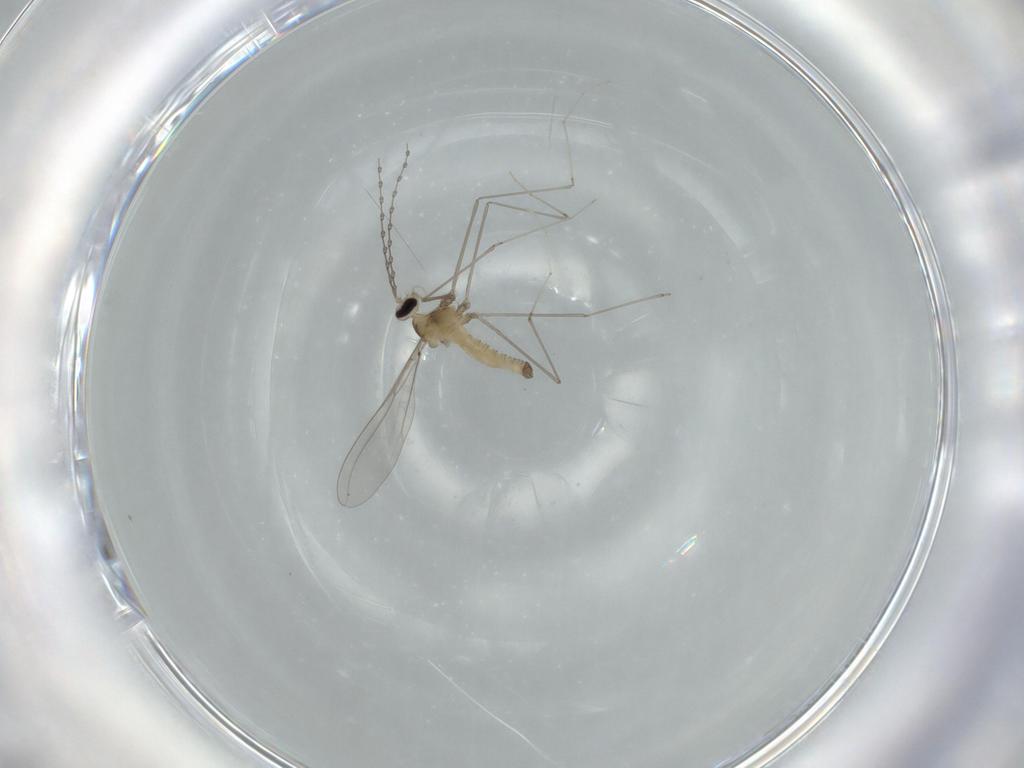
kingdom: Animalia
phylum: Arthropoda
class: Insecta
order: Diptera
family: Cecidomyiidae
